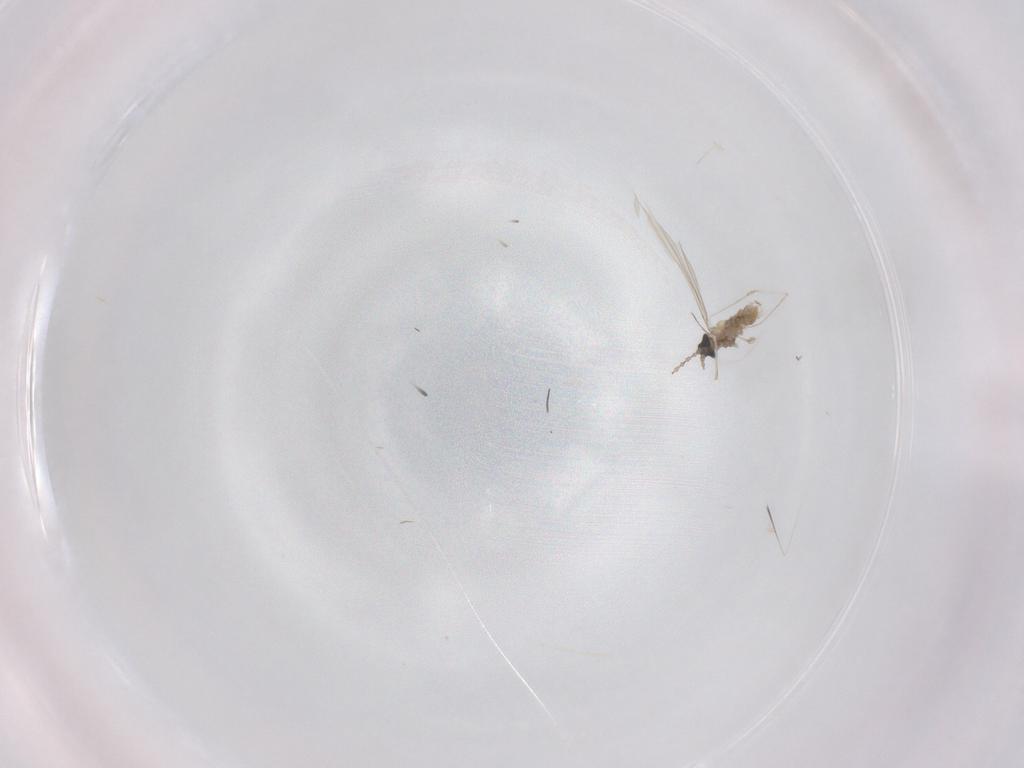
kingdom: Animalia
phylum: Arthropoda
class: Insecta
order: Diptera
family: Cecidomyiidae
